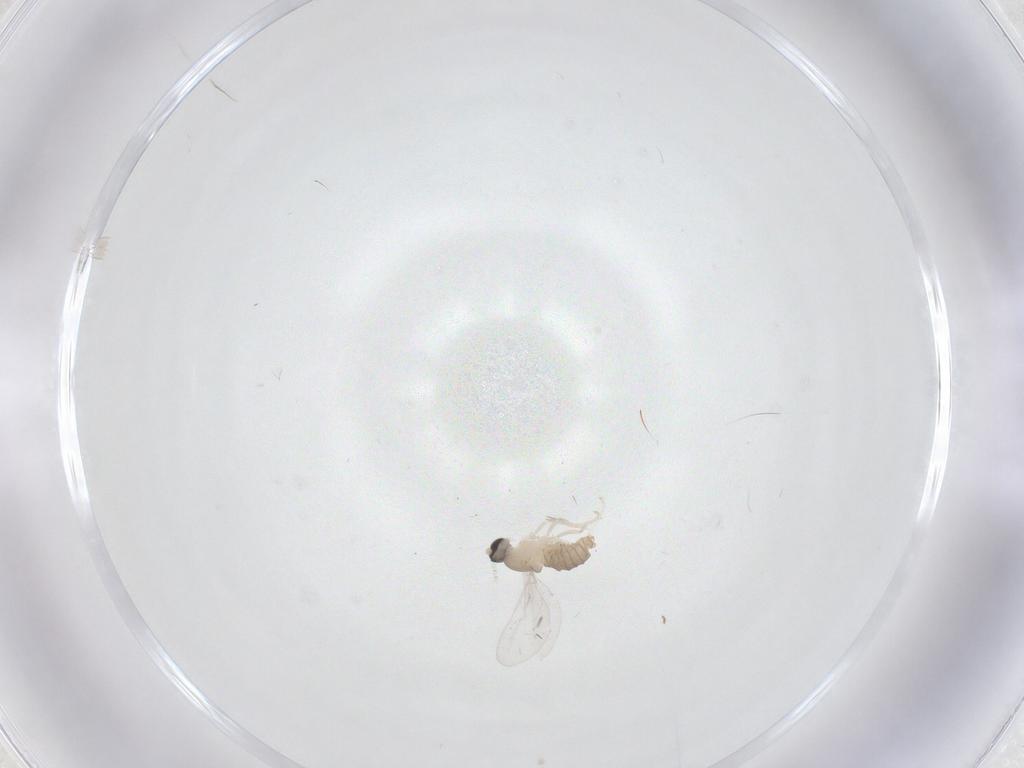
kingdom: Animalia
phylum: Arthropoda
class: Insecta
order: Diptera
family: Cecidomyiidae
